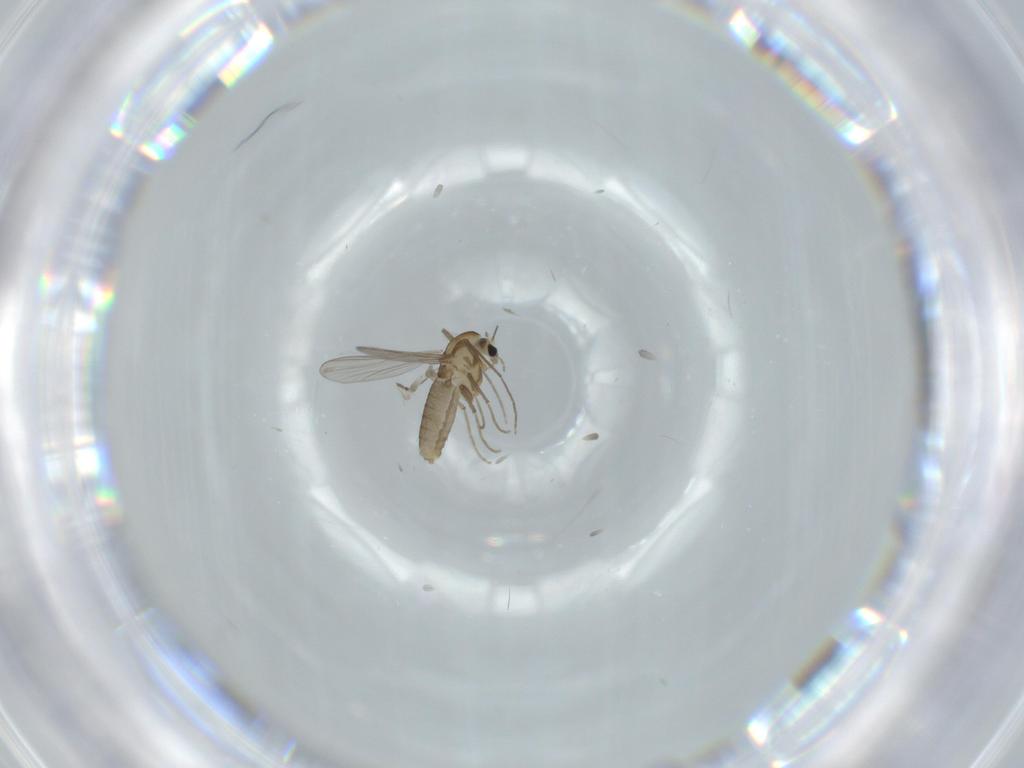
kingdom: Animalia
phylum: Arthropoda
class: Insecta
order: Diptera
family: Chironomidae
